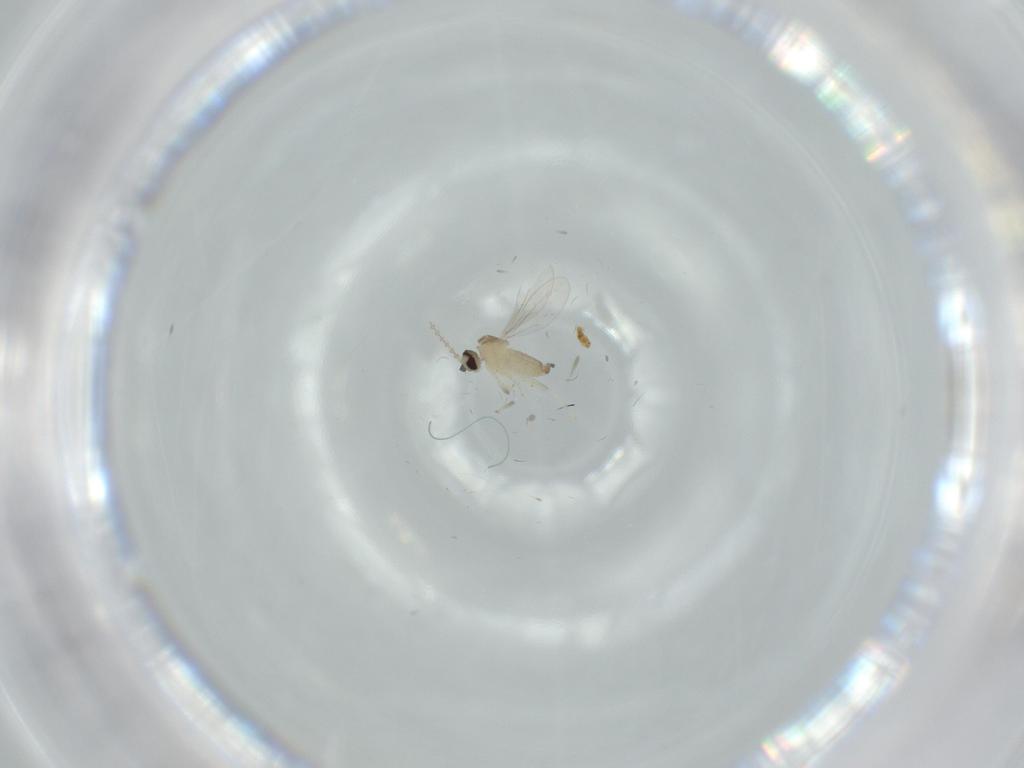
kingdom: Animalia
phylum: Arthropoda
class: Insecta
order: Diptera
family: Cecidomyiidae
